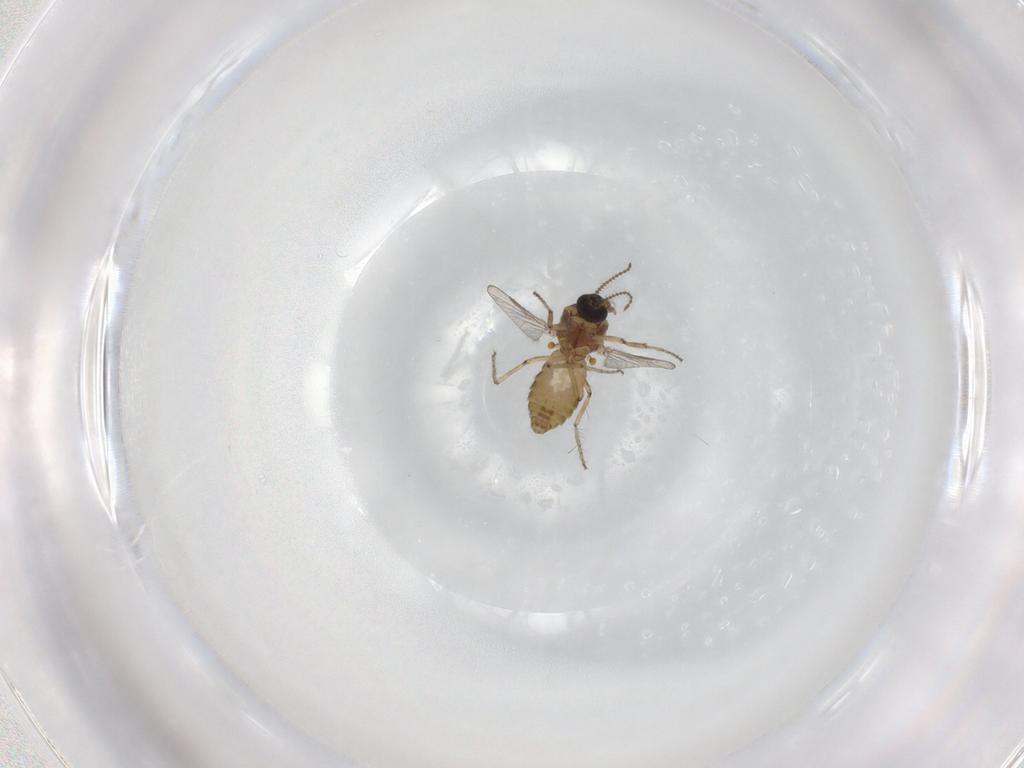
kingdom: Animalia
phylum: Arthropoda
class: Insecta
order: Diptera
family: Ceratopogonidae
